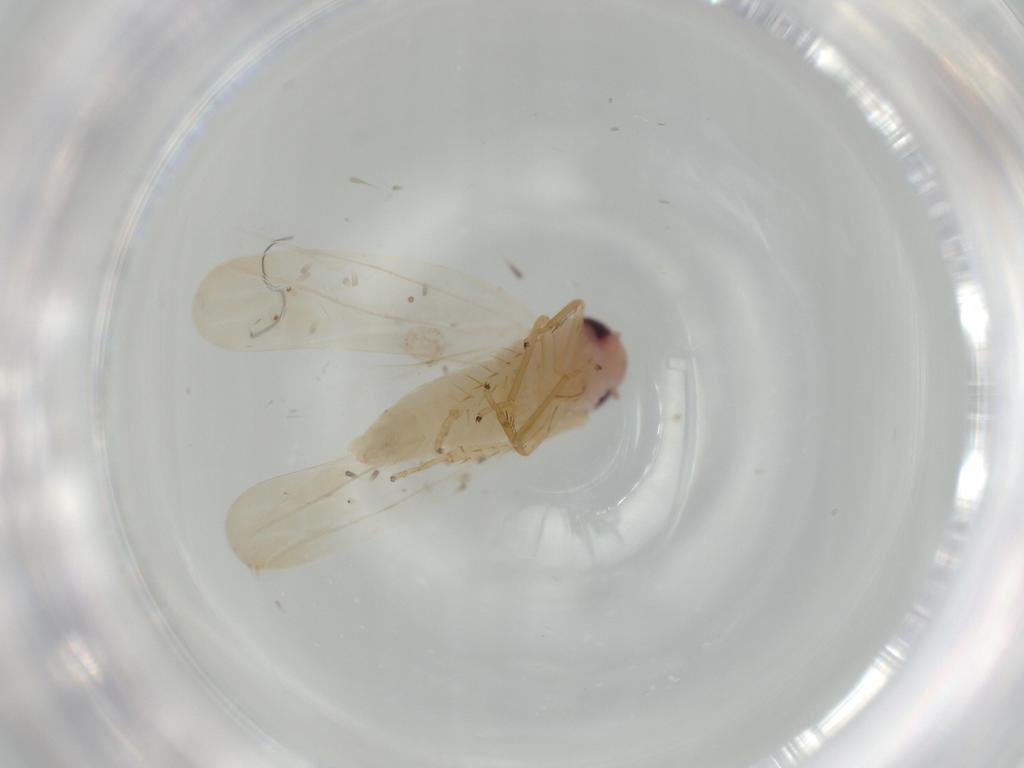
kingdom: Animalia
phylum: Arthropoda
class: Insecta
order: Hemiptera
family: Cicadellidae
